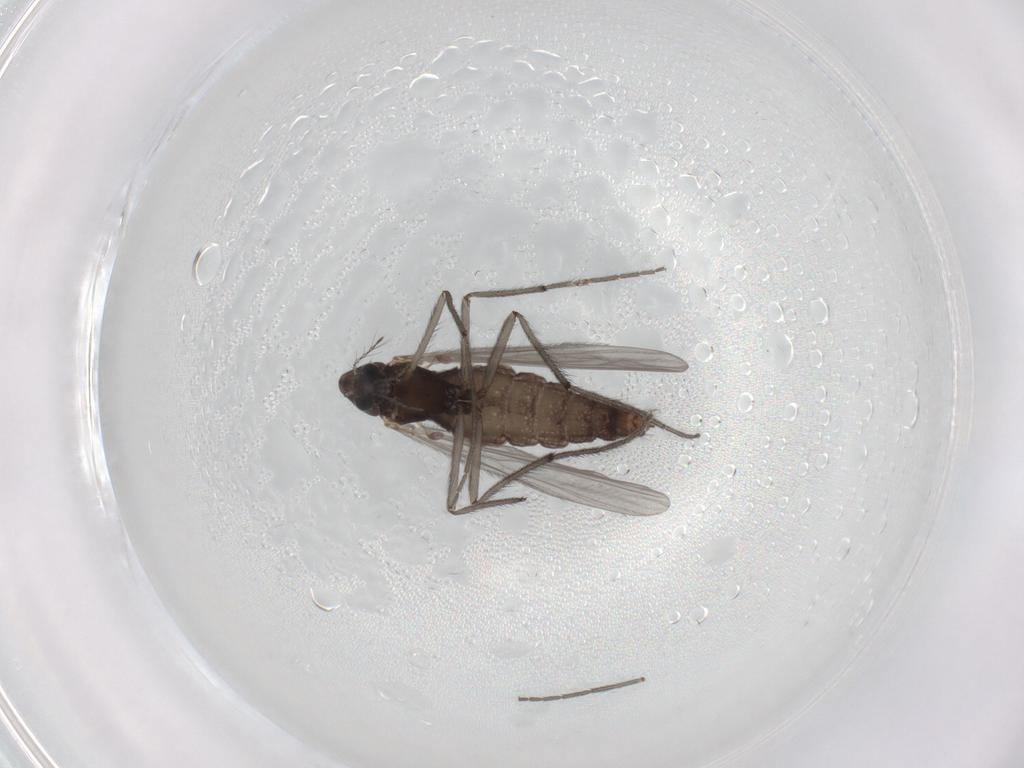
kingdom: Animalia
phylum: Arthropoda
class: Insecta
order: Diptera
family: Chironomidae
